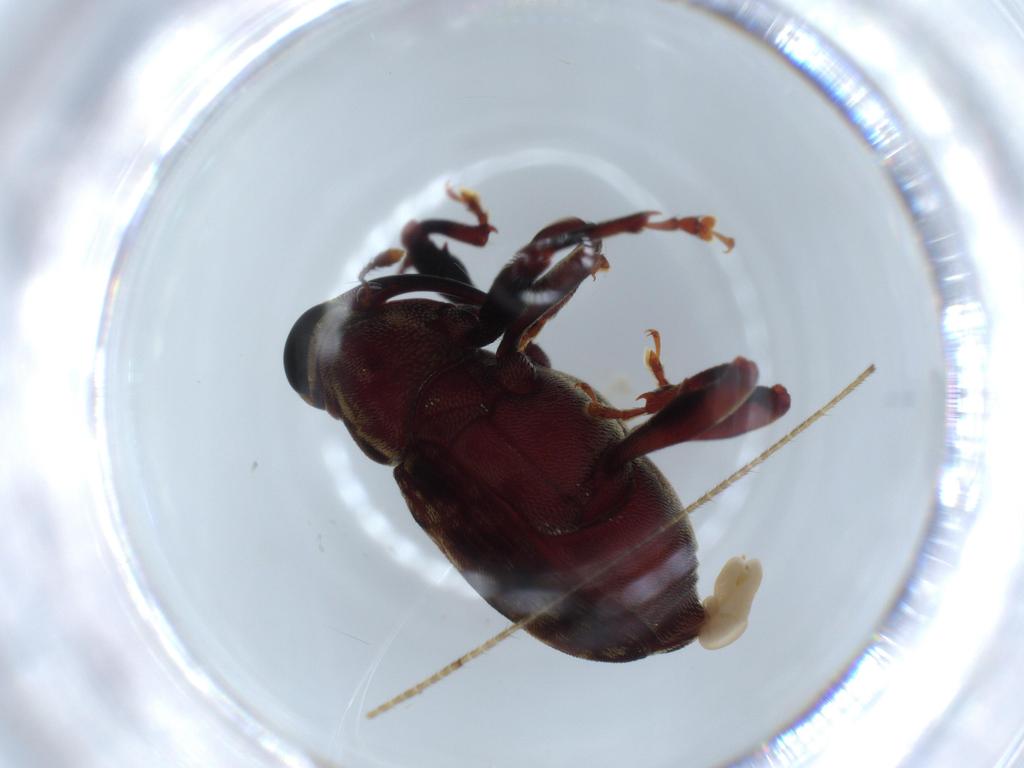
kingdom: Animalia
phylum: Arthropoda
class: Insecta
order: Coleoptera
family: Curculionidae
